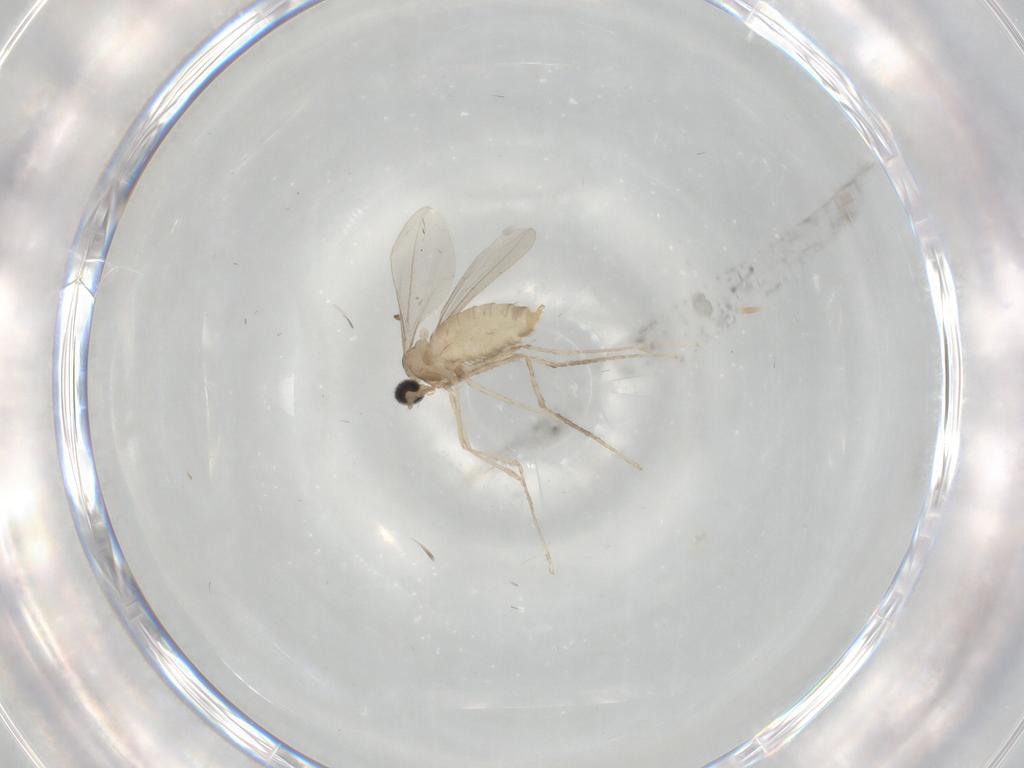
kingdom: Animalia
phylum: Arthropoda
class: Insecta
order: Diptera
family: Cecidomyiidae
